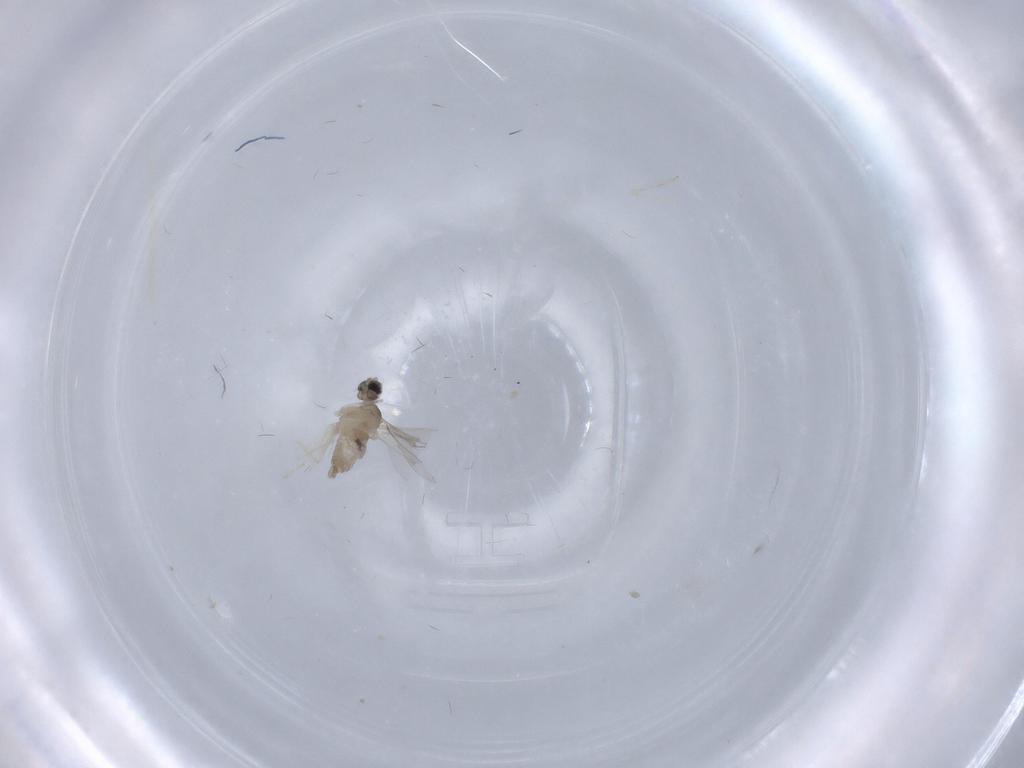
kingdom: Animalia
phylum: Arthropoda
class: Insecta
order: Diptera
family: Cecidomyiidae
